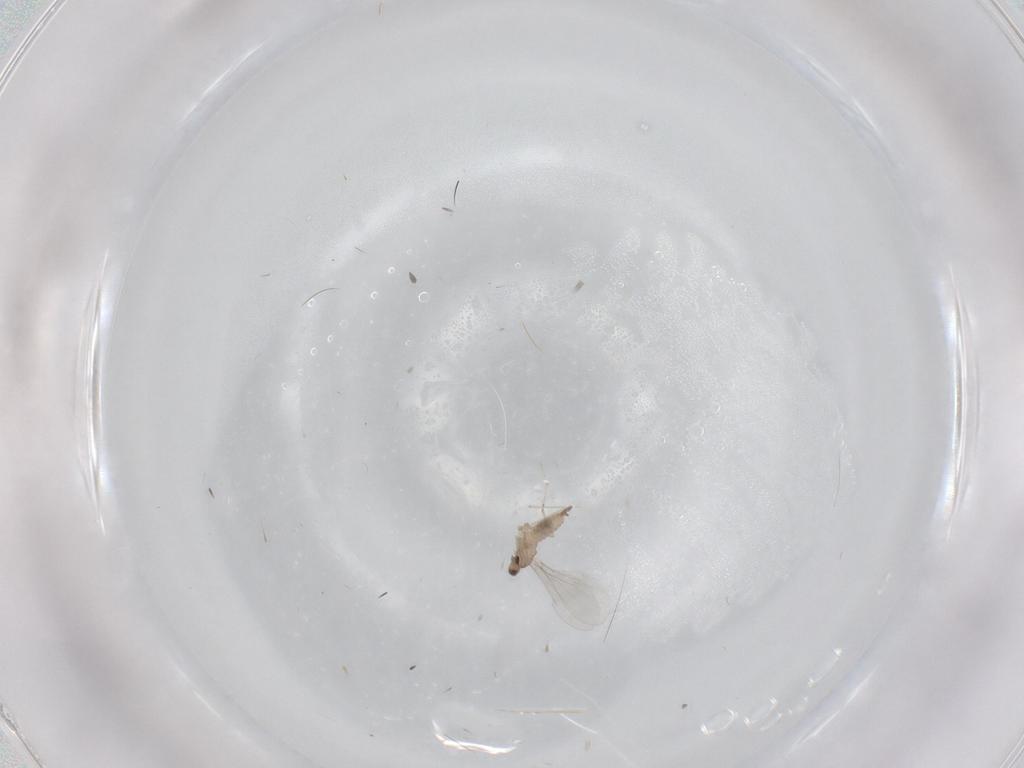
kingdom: Animalia
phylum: Arthropoda
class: Insecta
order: Diptera
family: Cecidomyiidae
